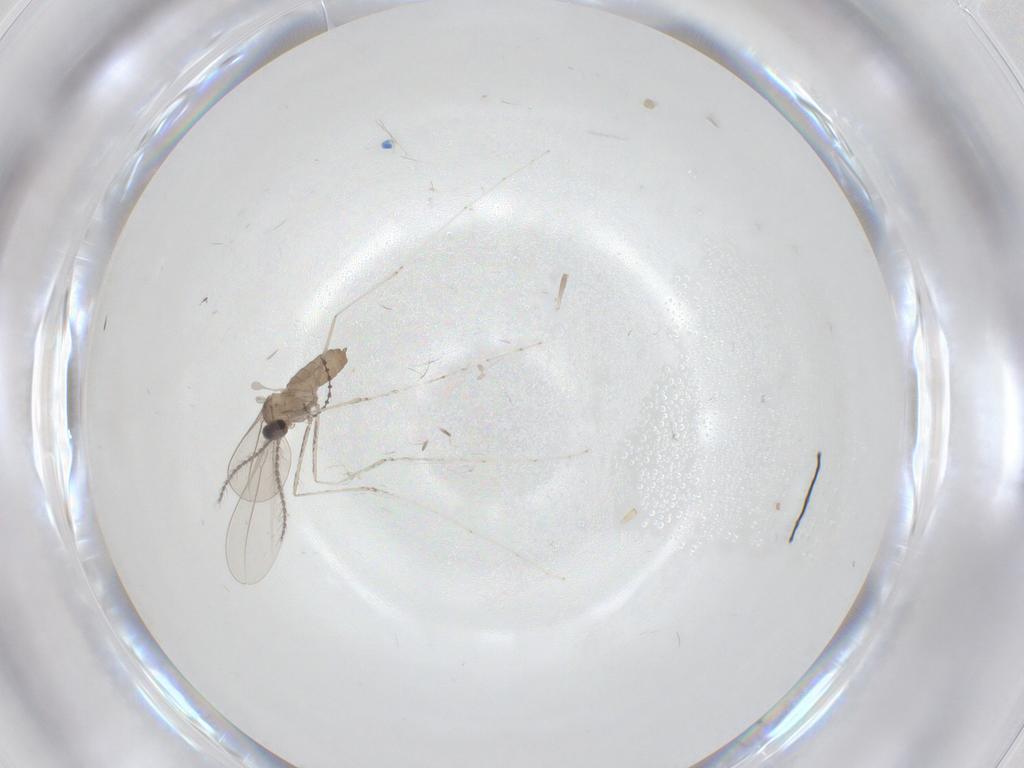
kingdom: Animalia
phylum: Arthropoda
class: Insecta
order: Diptera
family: Cecidomyiidae
